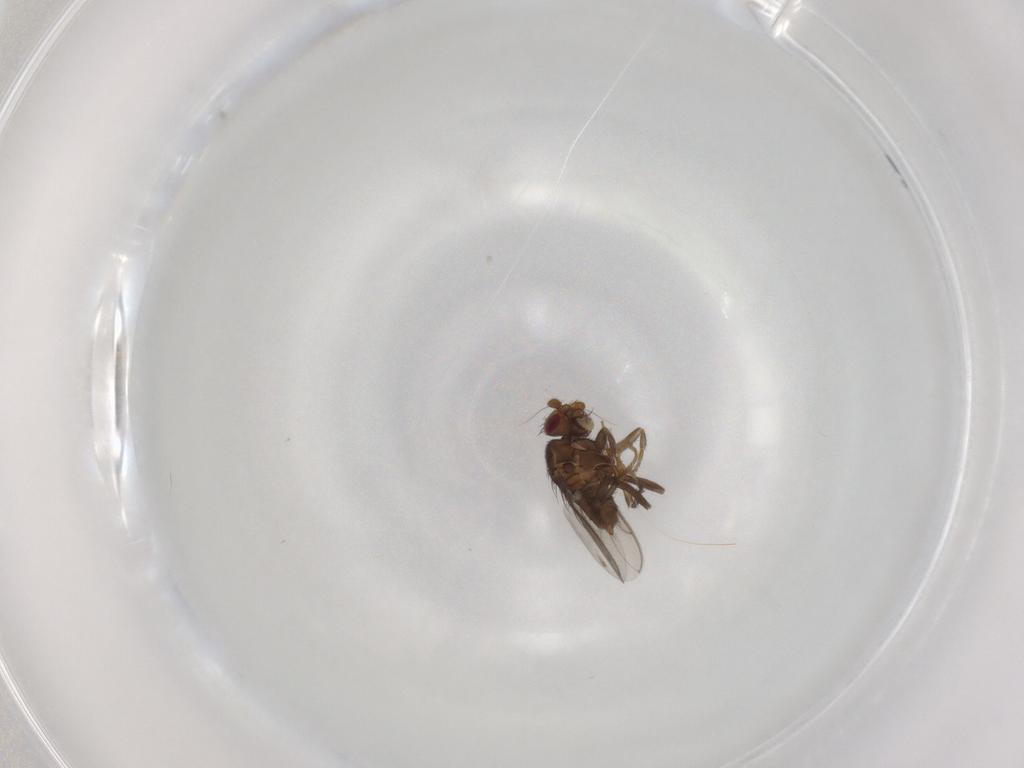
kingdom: Animalia
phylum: Arthropoda
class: Insecta
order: Diptera
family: Sphaeroceridae
